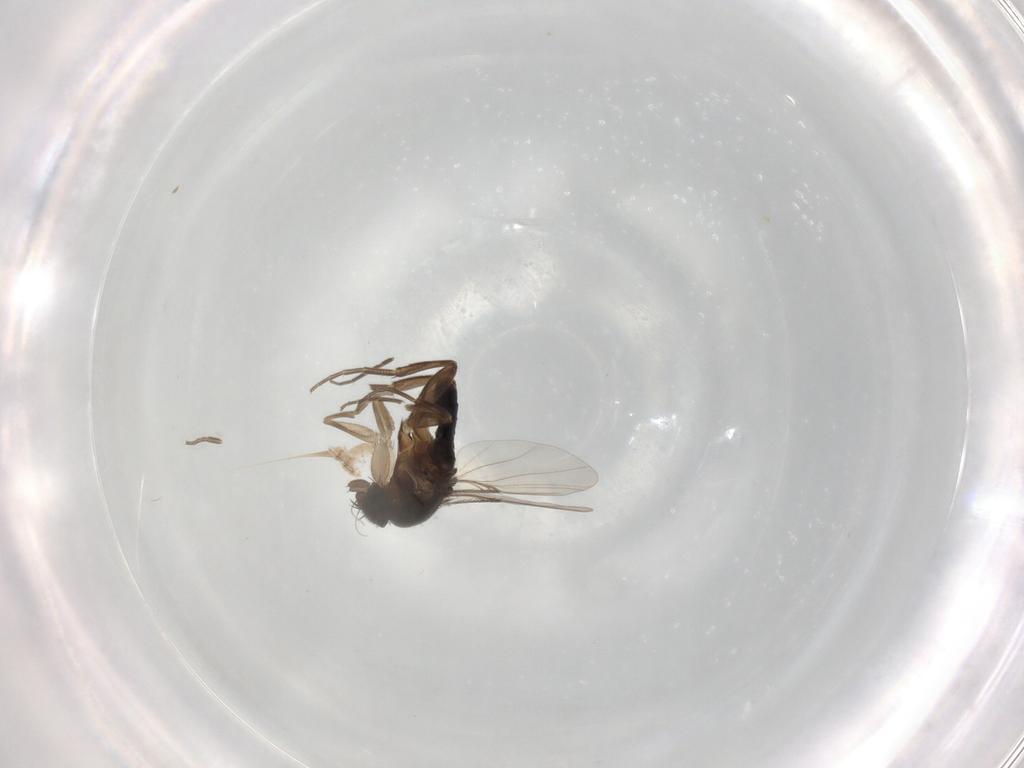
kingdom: Animalia
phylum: Arthropoda
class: Insecta
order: Diptera
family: Phoridae
